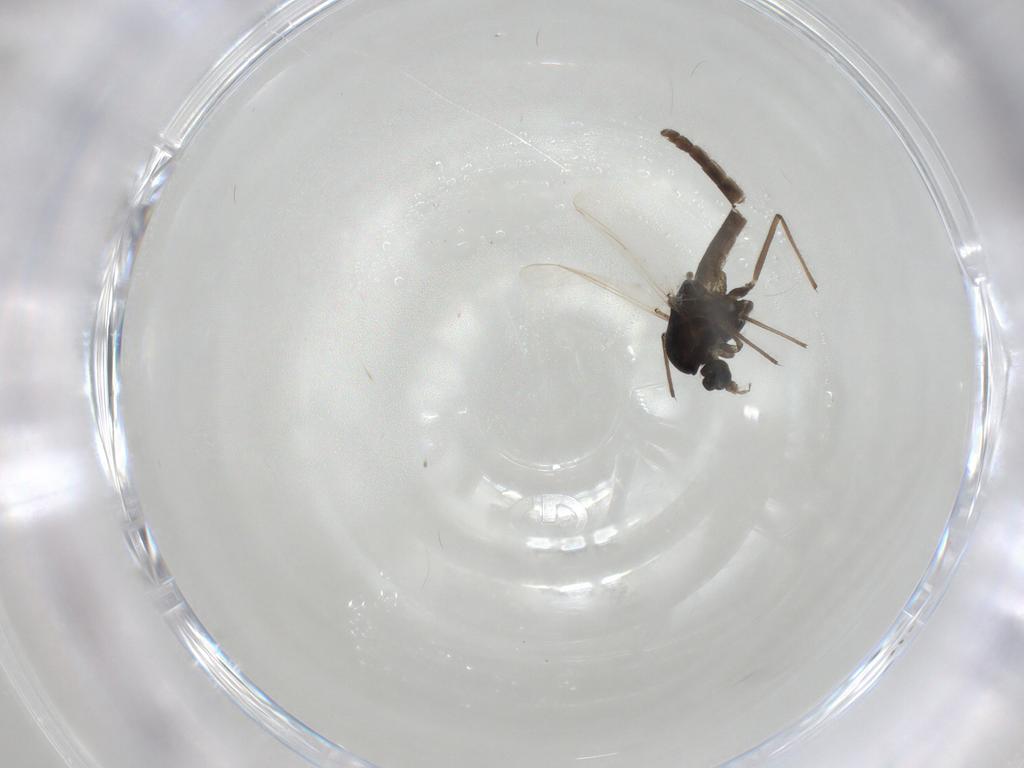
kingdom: Animalia
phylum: Arthropoda
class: Insecta
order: Diptera
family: Chironomidae
